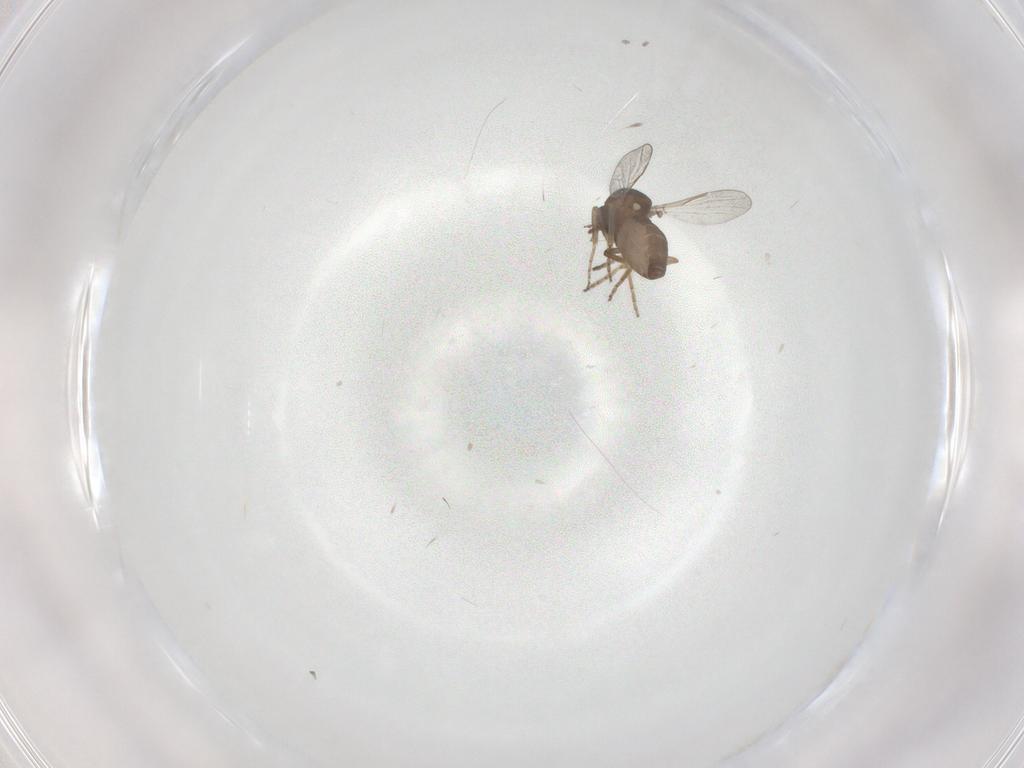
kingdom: Animalia
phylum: Arthropoda
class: Insecta
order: Diptera
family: Ceratopogonidae
